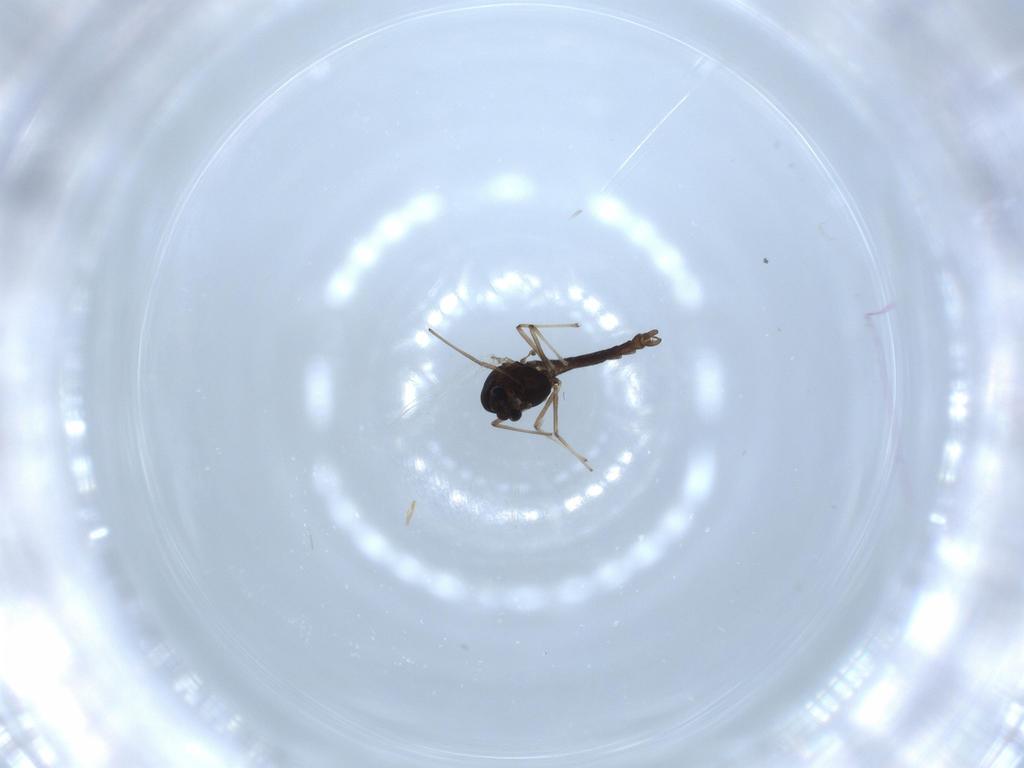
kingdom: Animalia
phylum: Arthropoda
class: Insecta
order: Diptera
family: Chironomidae
